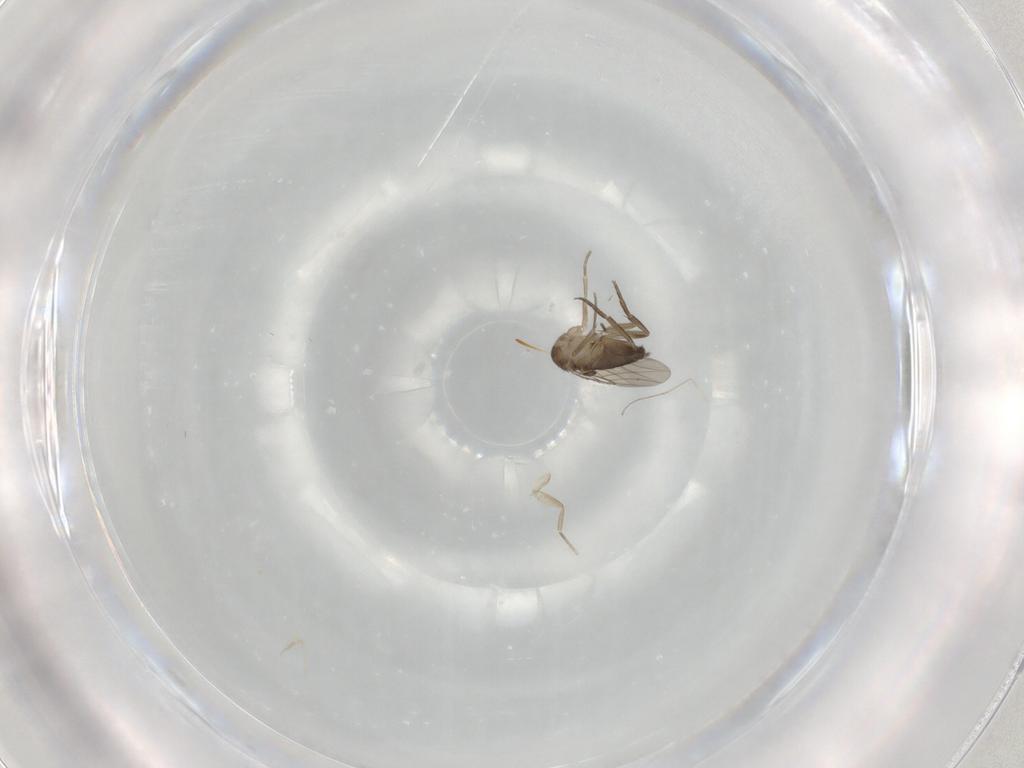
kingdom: Animalia
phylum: Arthropoda
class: Insecta
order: Diptera
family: Cecidomyiidae
